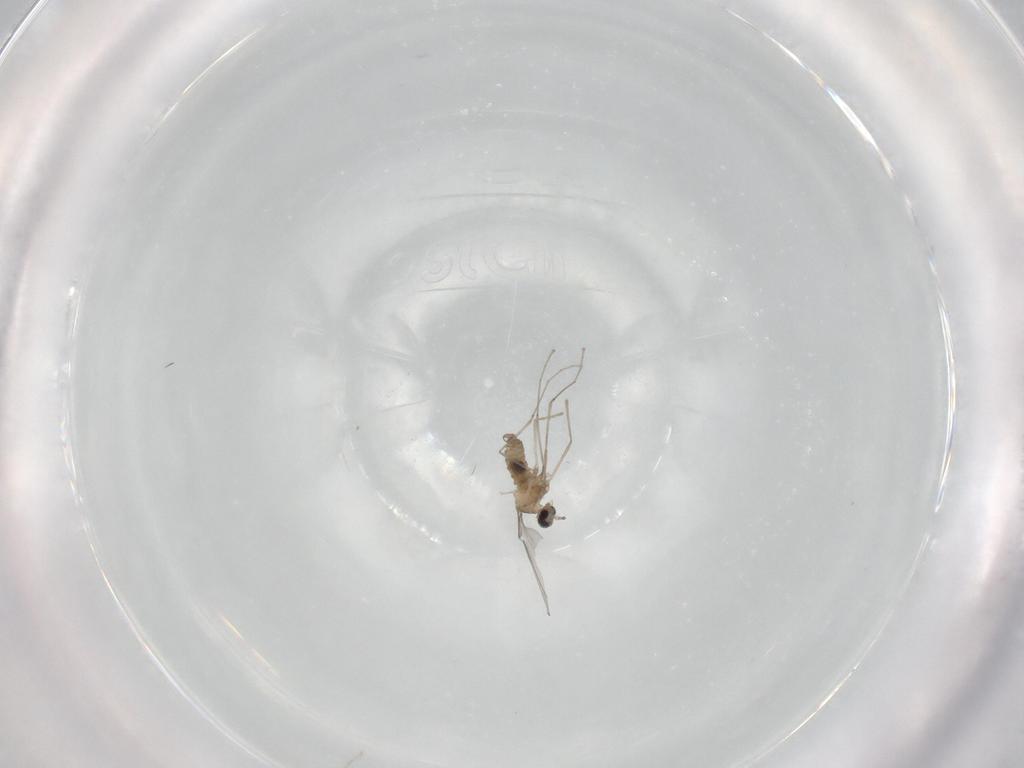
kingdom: Animalia
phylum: Arthropoda
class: Insecta
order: Diptera
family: Cecidomyiidae
